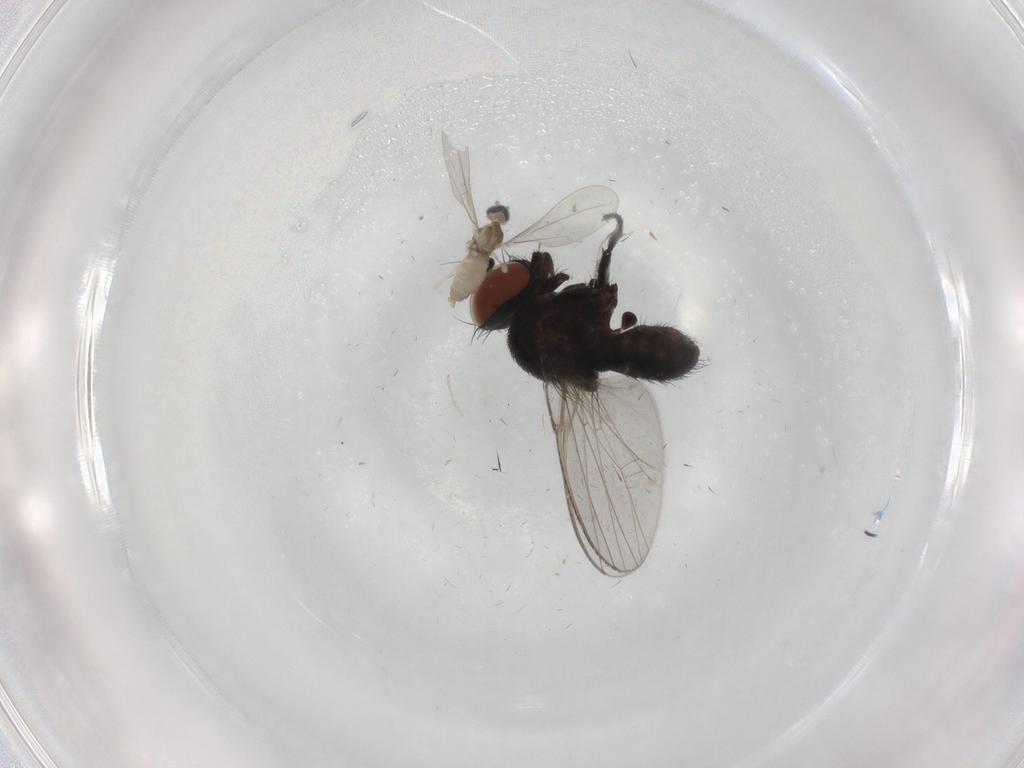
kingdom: Animalia
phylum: Arthropoda
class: Insecta
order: Diptera
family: Milichiidae
